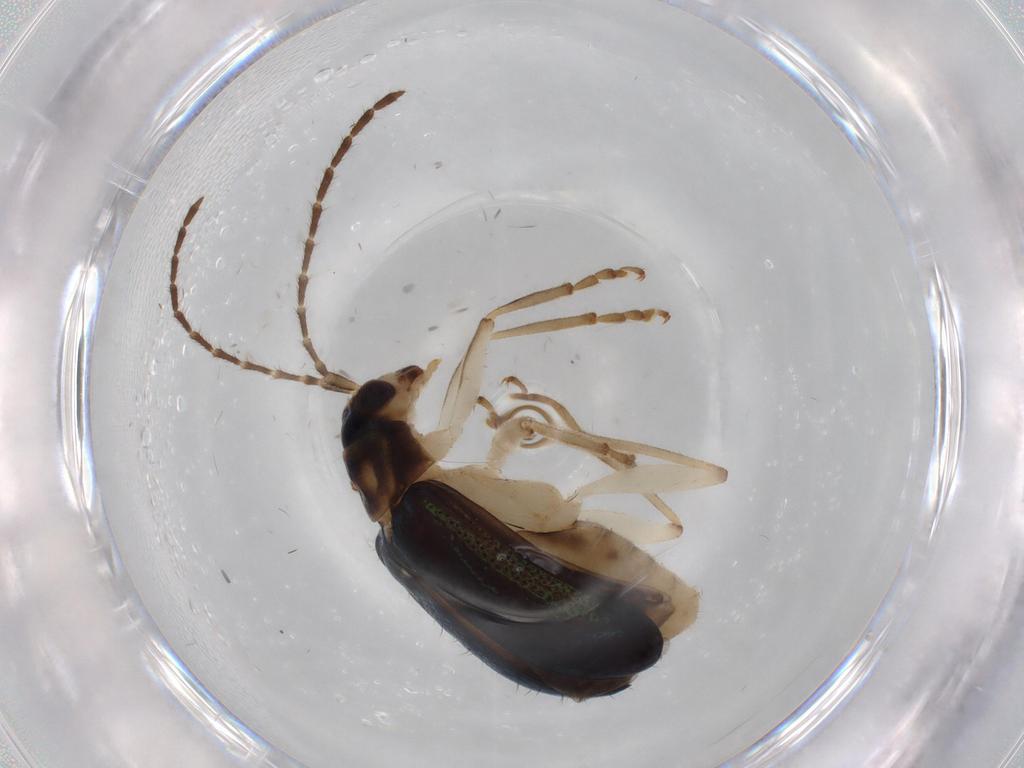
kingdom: Animalia
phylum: Arthropoda
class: Insecta
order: Coleoptera
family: Chrysomelidae
